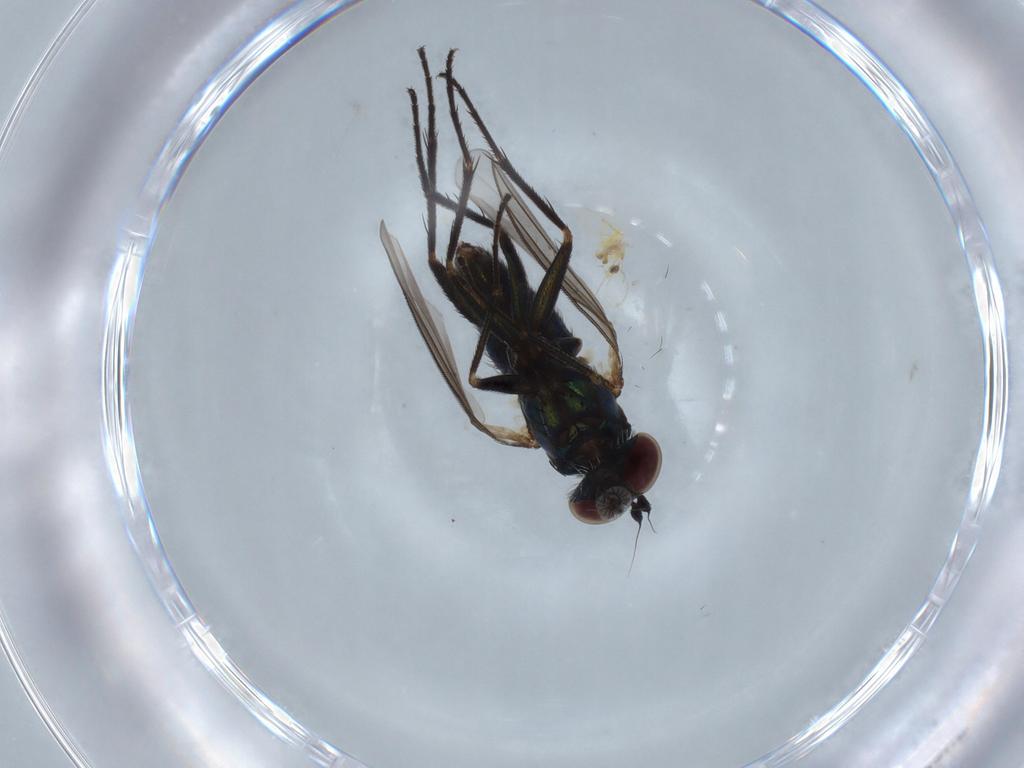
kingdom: Animalia
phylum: Arthropoda
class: Insecta
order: Diptera
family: Dolichopodidae
